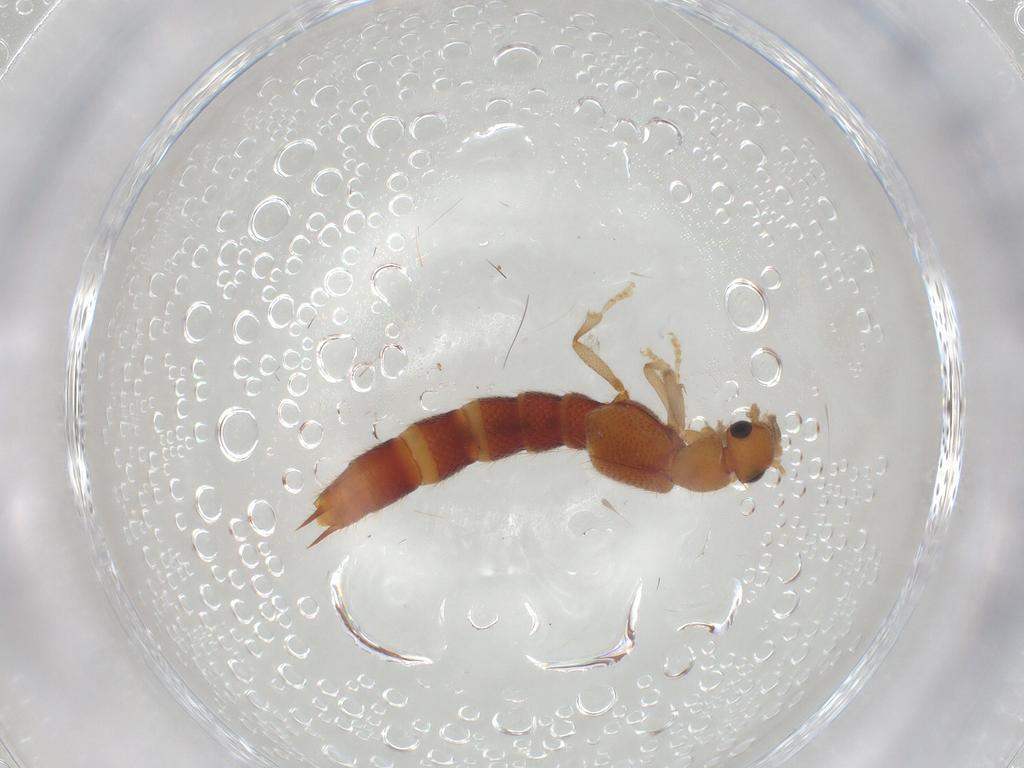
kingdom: Animalia
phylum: Arthropoda
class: Insecta
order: Coleoptera
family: Staphylinidae
